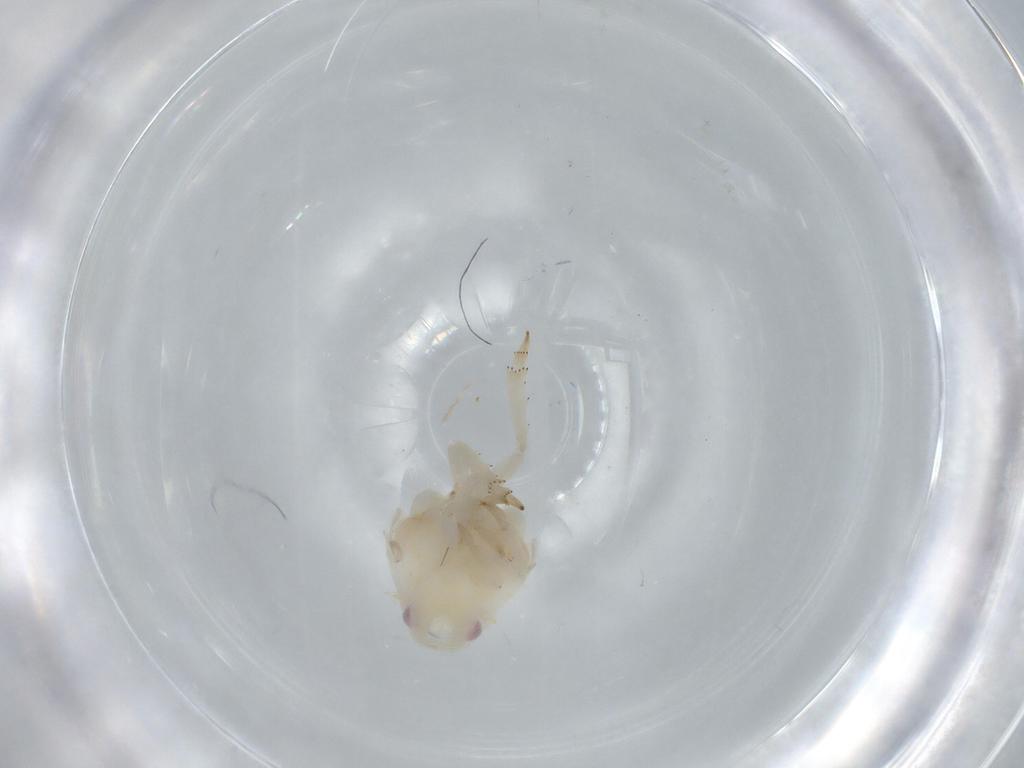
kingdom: Animalia
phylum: Arthropoda
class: Insecta
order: Hemiptera
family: Flatidae
